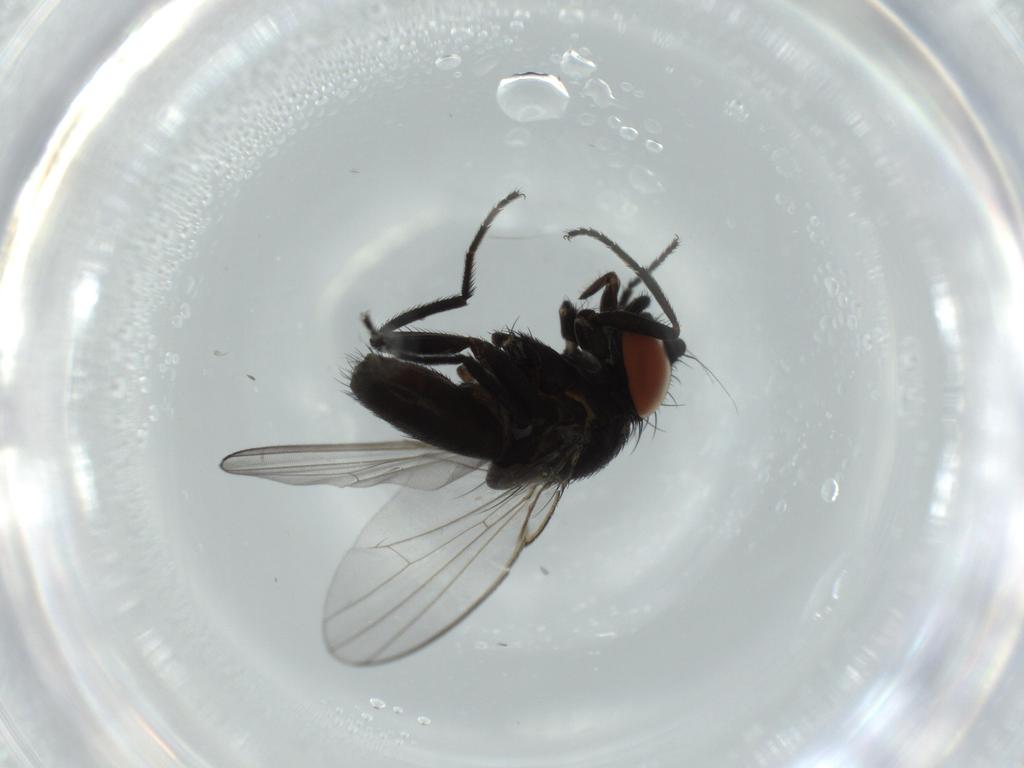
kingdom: Animalia
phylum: Arthropoda
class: Insecta
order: Diptera
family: Milichiidae
